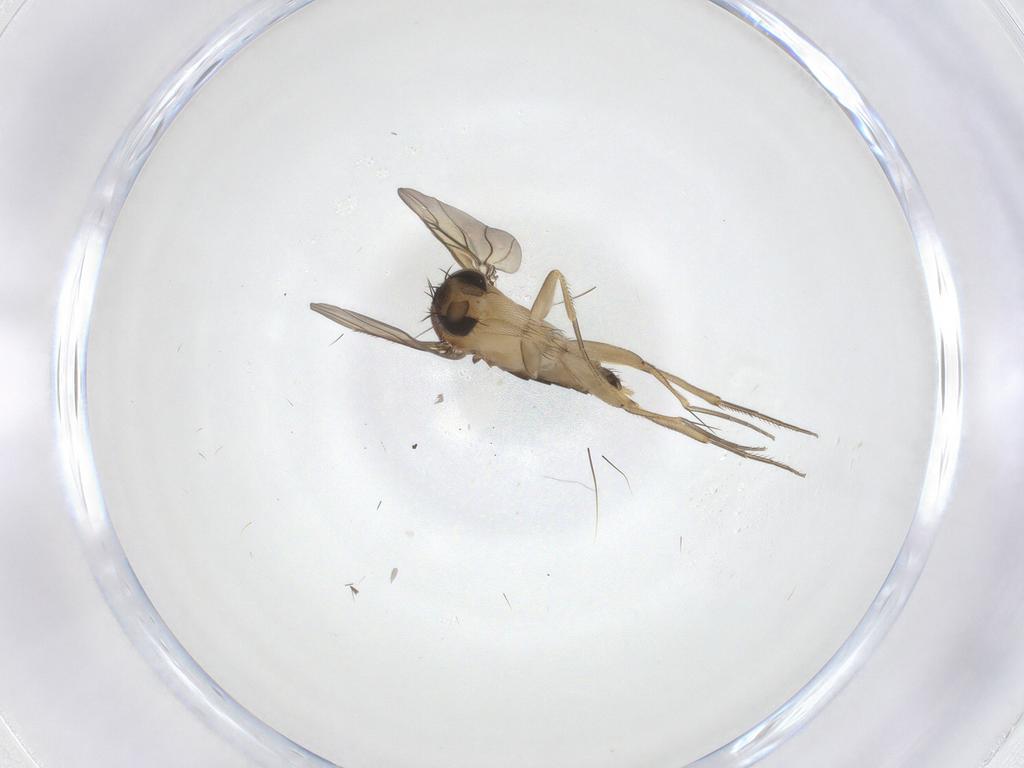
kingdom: Animalia
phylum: Arthropoda
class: Insecta
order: Diptera
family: Phoridae
